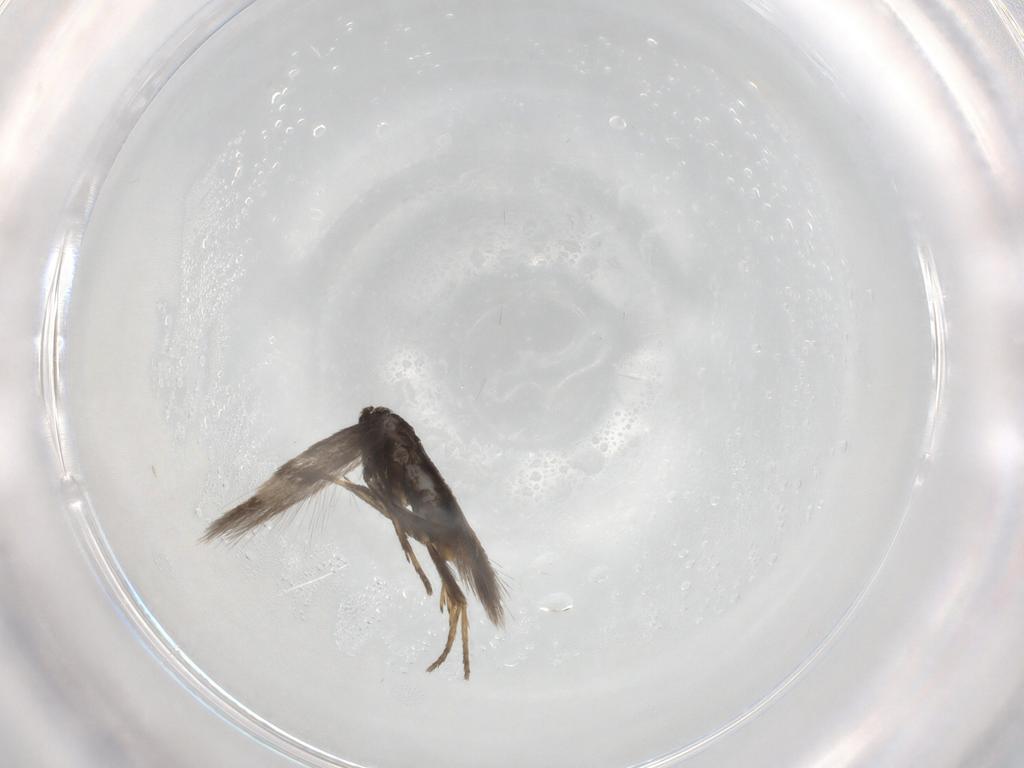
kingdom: Animalia
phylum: Arthropoda
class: Insecta
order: Lepidoptera
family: Nepticulidae
